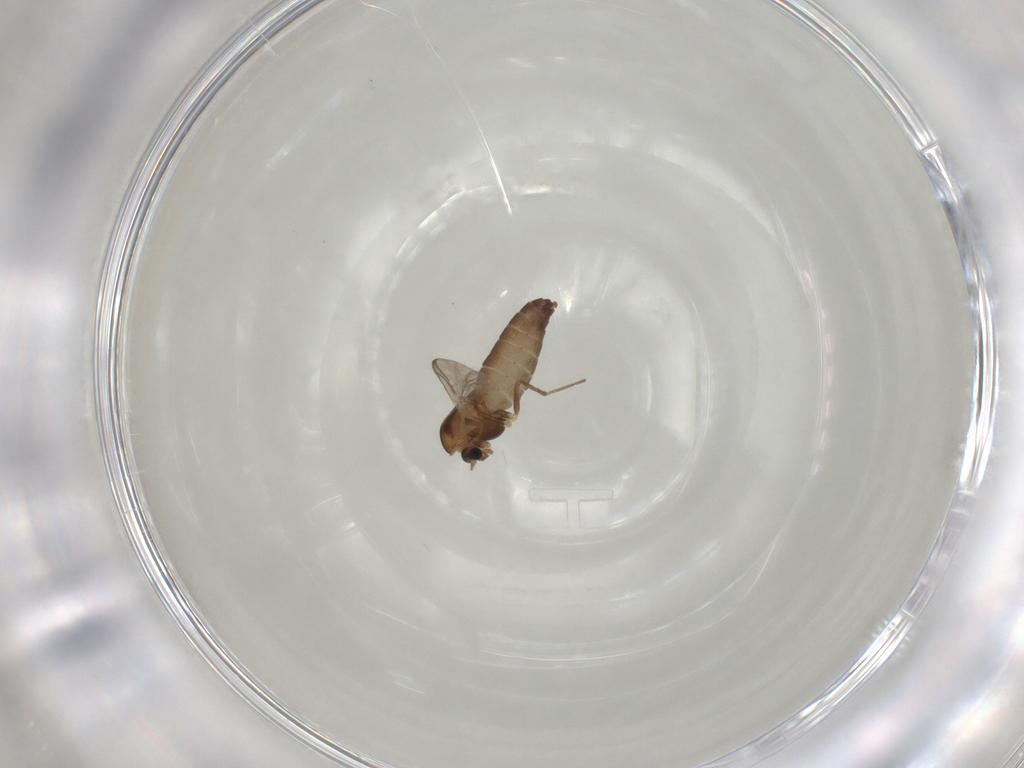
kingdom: Animalia
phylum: Arthropoda
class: Insecta
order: Diptera
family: Chironomidae
